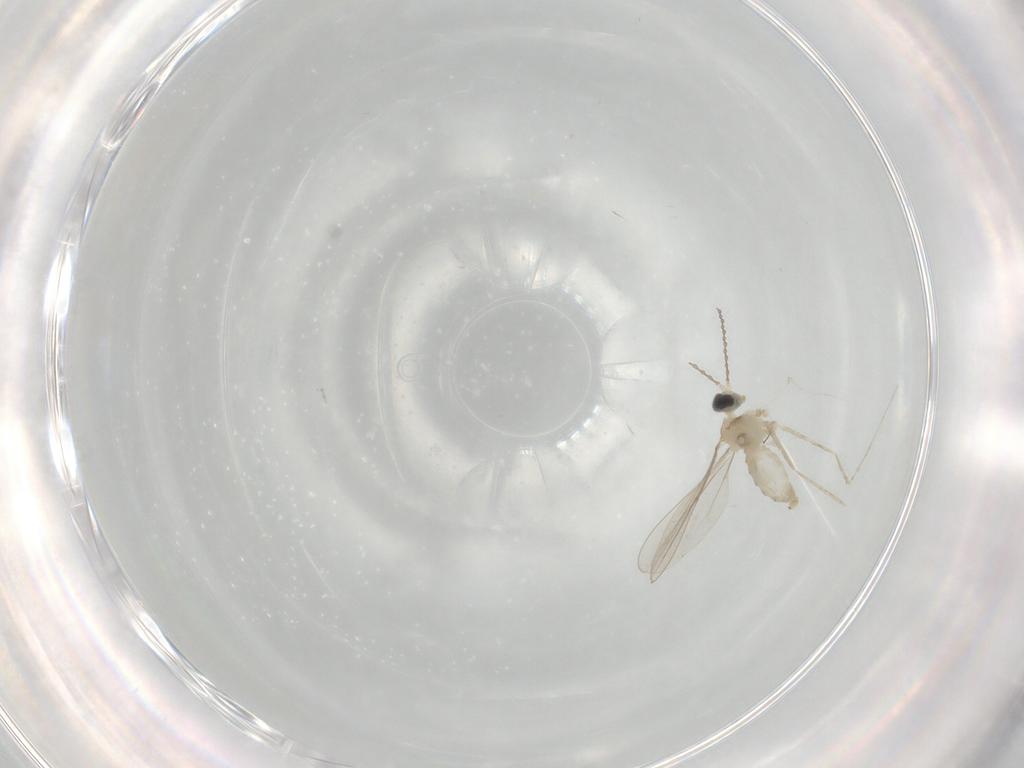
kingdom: Animalia
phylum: Arthropoda
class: Insecta
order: Diptera
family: Cecidomyiidae
